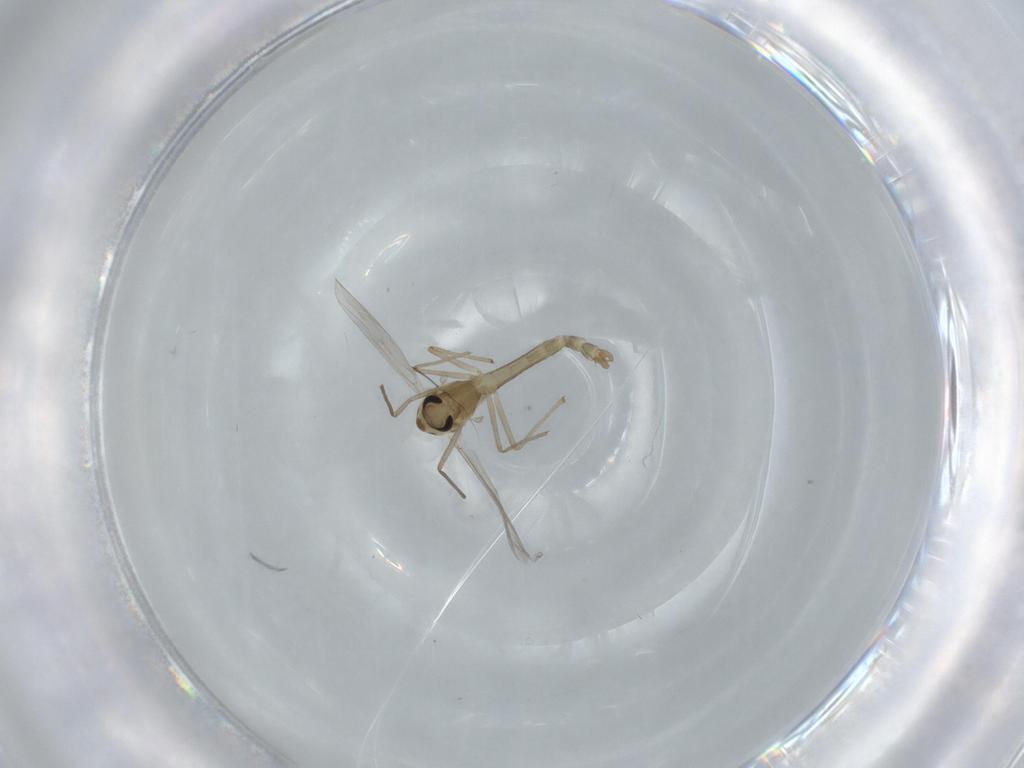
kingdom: Animalia
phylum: Arthropoda
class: Insecta
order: Diptera
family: Chironomidae
